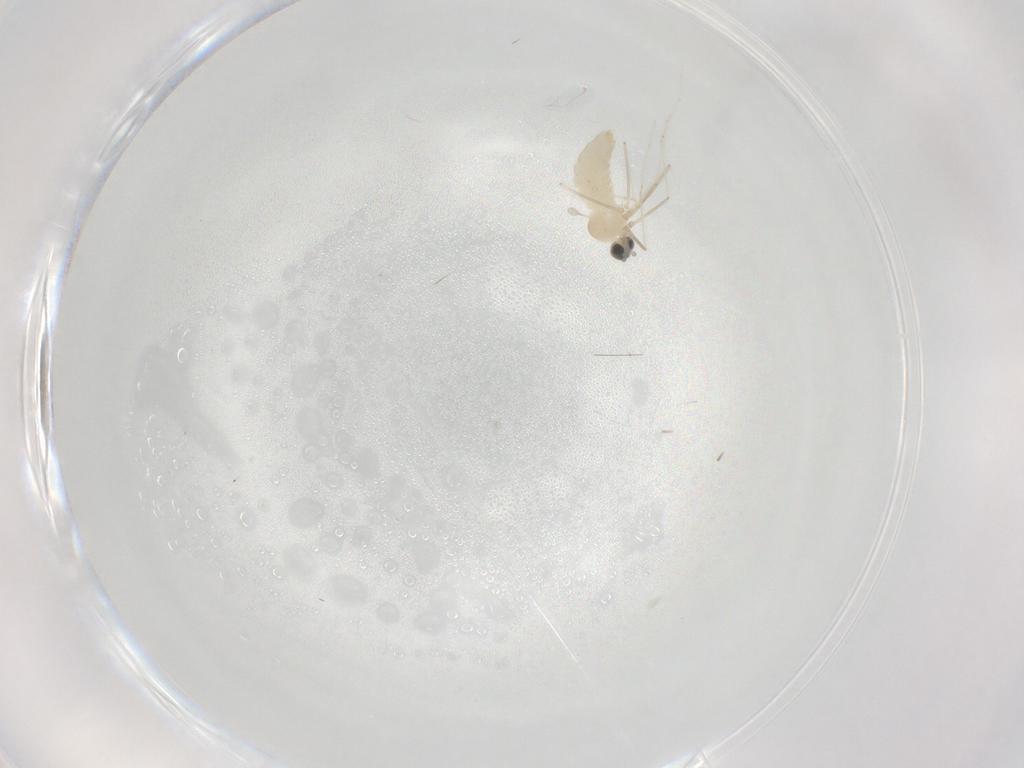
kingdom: Animalia
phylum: Arthropoda
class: Insecta
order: Diptera
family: Cecidomyiidae
